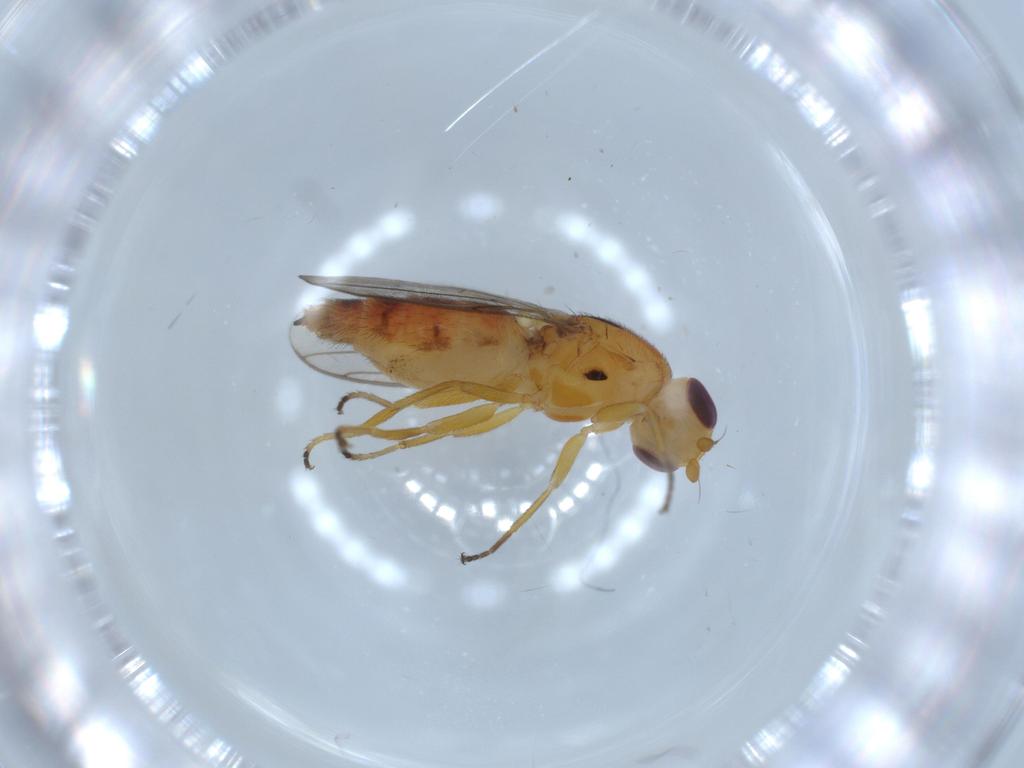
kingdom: Animalia
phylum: Arthropoda
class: Insecta
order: Diptera
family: Chloropidae
